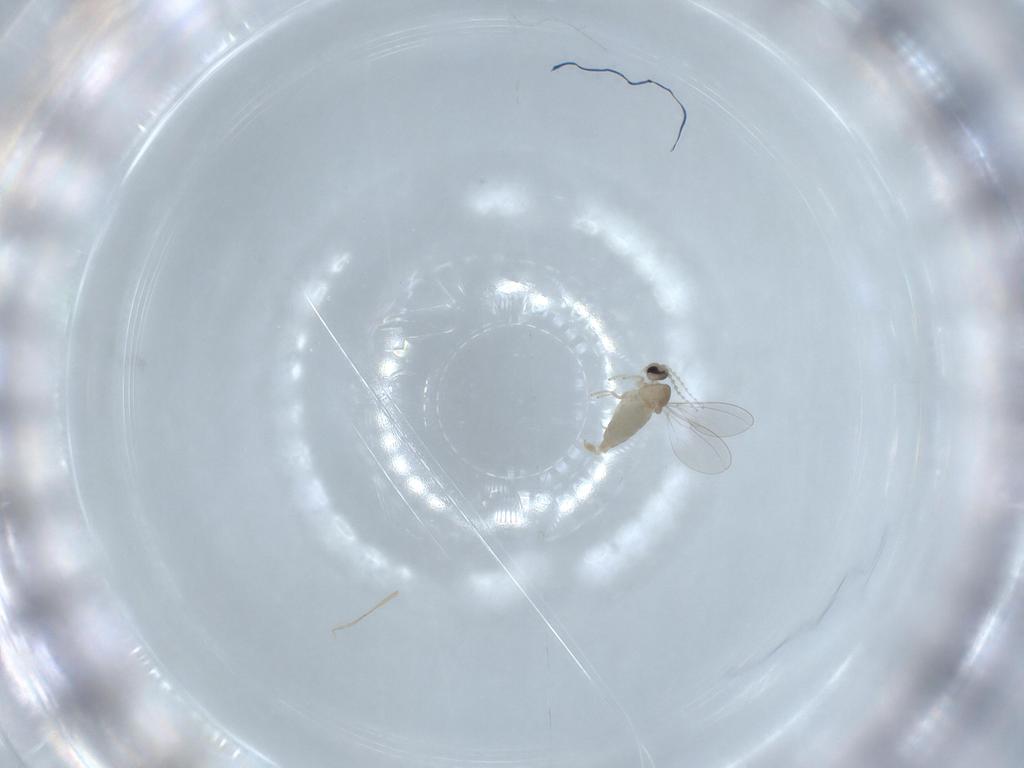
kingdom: Animalia
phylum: Arthropoda
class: Insecta
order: Diptera
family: Cecidomyiidae
